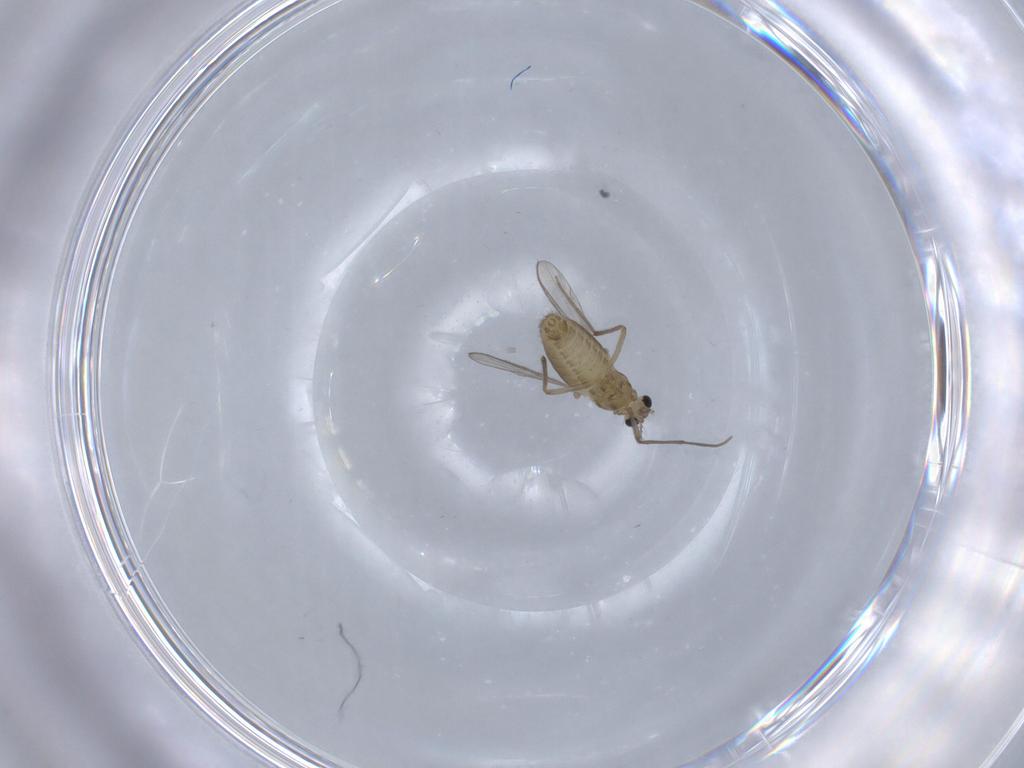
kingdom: Animalia
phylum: Arthropoda
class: Insecta
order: Diptera
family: Chironomidae
